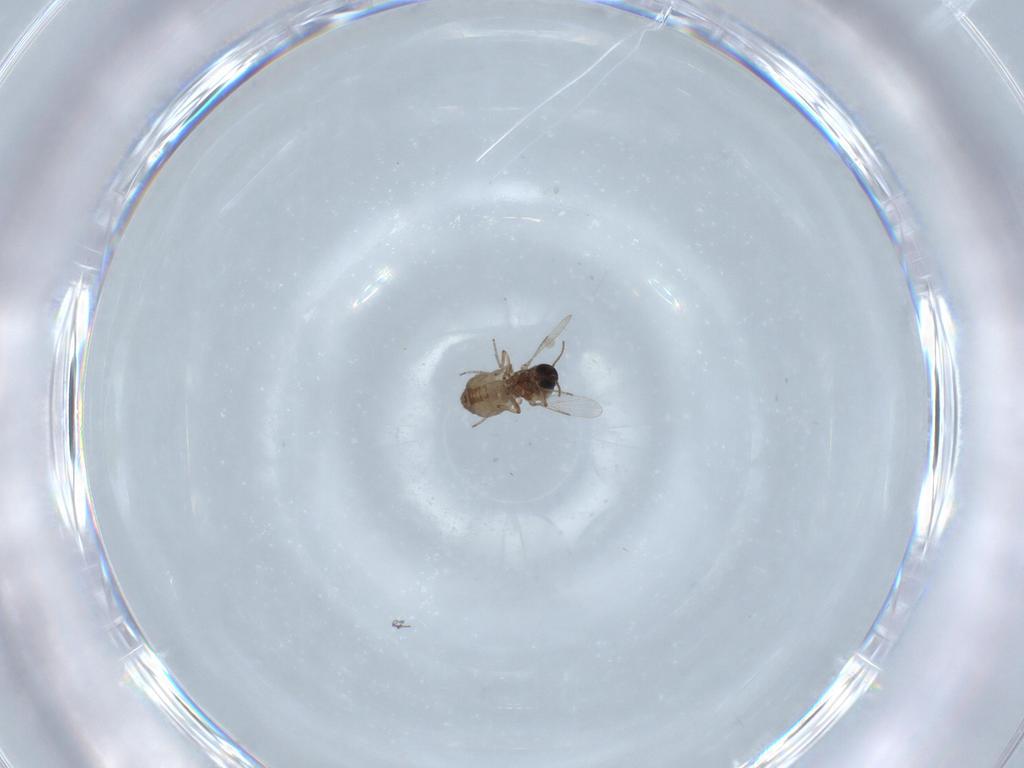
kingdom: Animalia
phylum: Arthropoda
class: Insecta
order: Diptera
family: Ceratopogonidae
